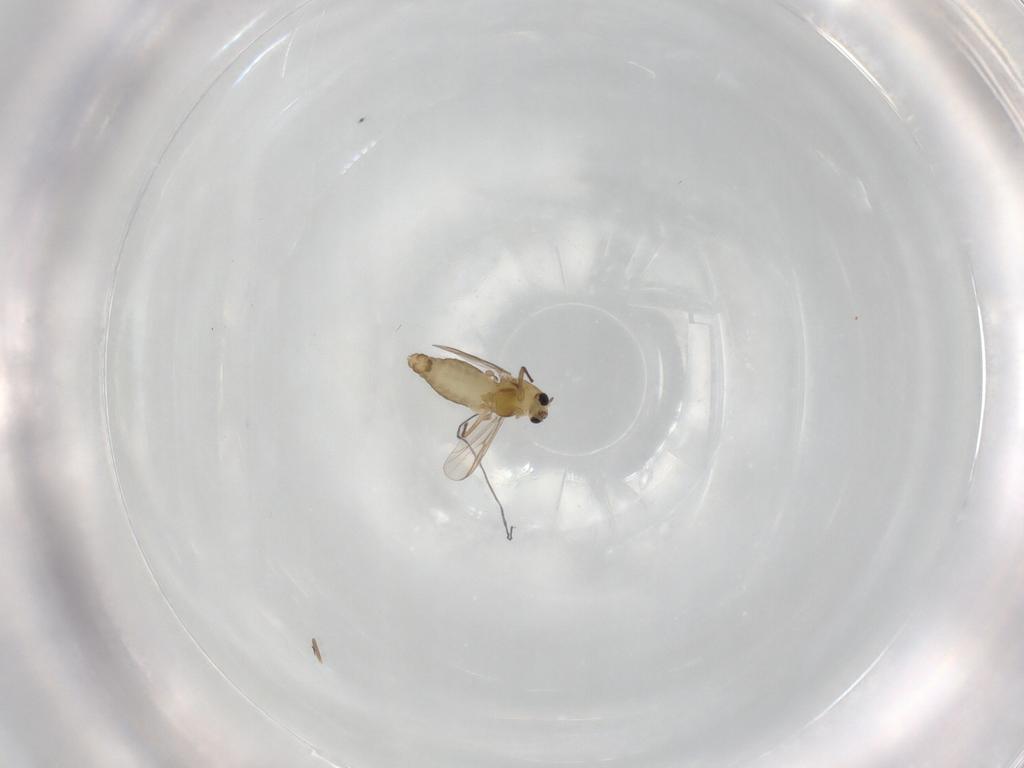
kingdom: Animalia
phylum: Arthropoda
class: Insecta
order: Diptera
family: Chironomidae
